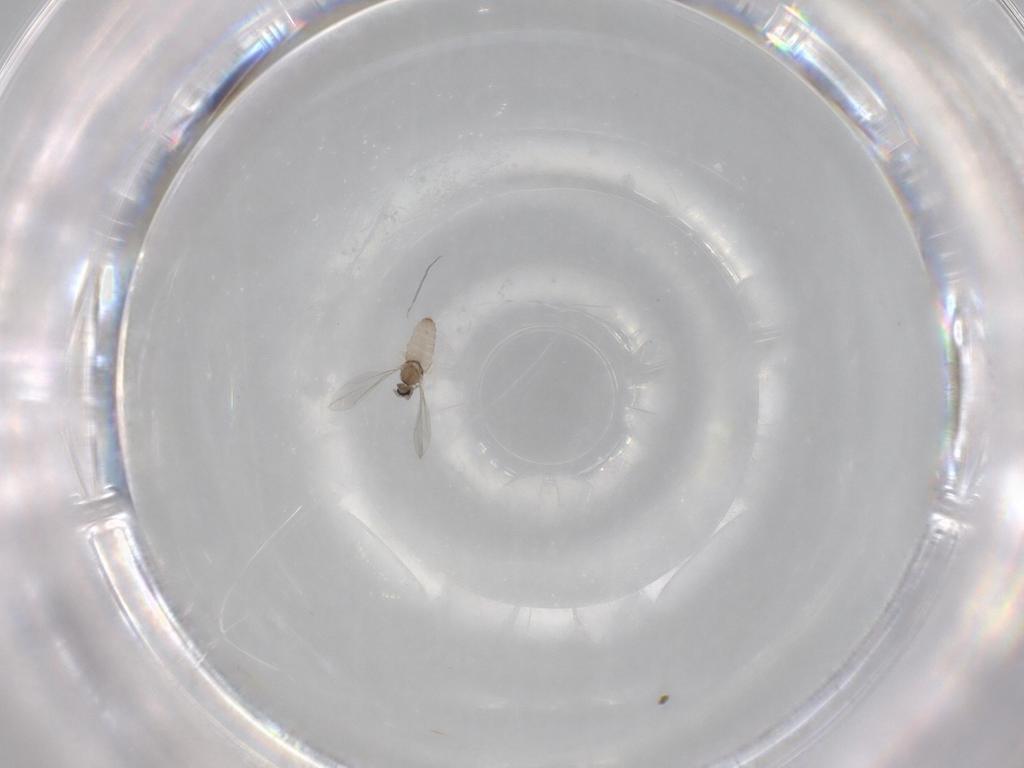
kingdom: Animalia
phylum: Arthropoda
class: Insecta
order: Diptera
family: Cecidomyiidae
